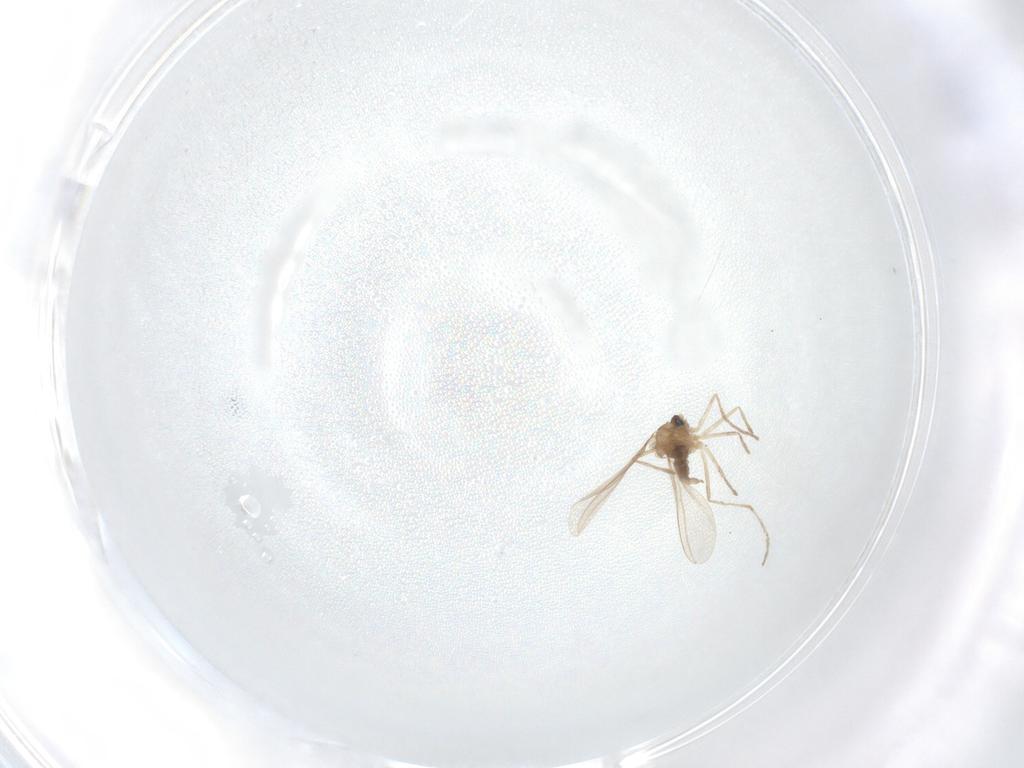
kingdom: Animalia
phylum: Arthropoda
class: Insecta
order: Diptera
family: Cecidomyiidae
